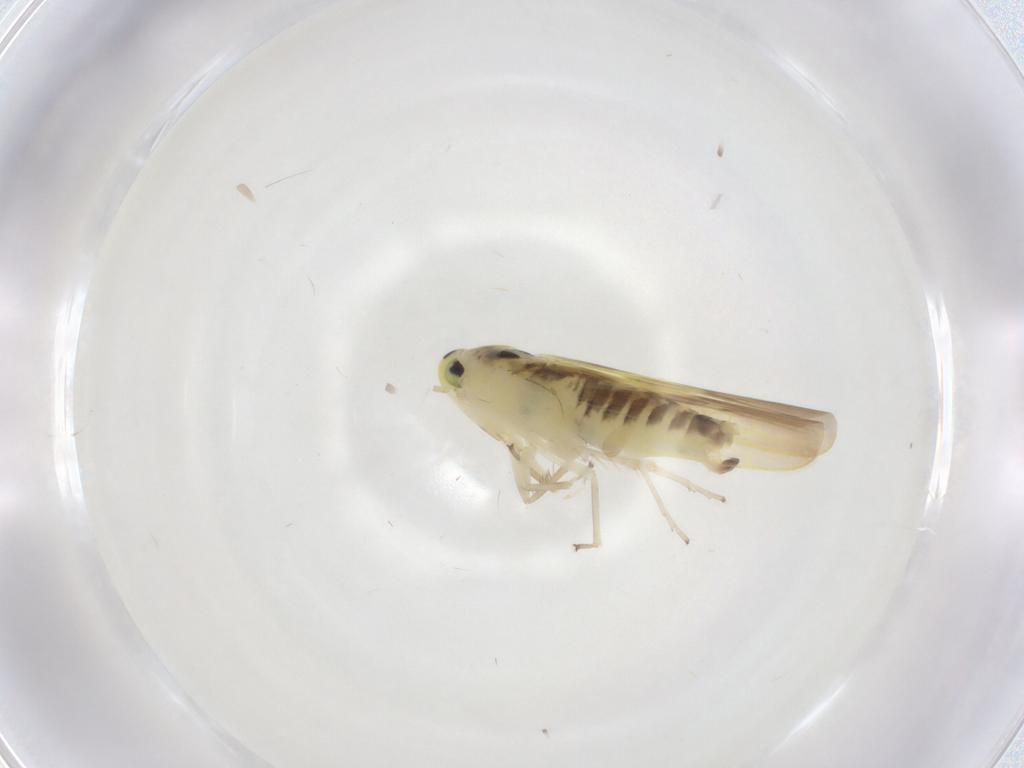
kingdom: Animalia
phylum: Arthropoda
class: Insecta
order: Hemiptera
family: Cicadellidae
